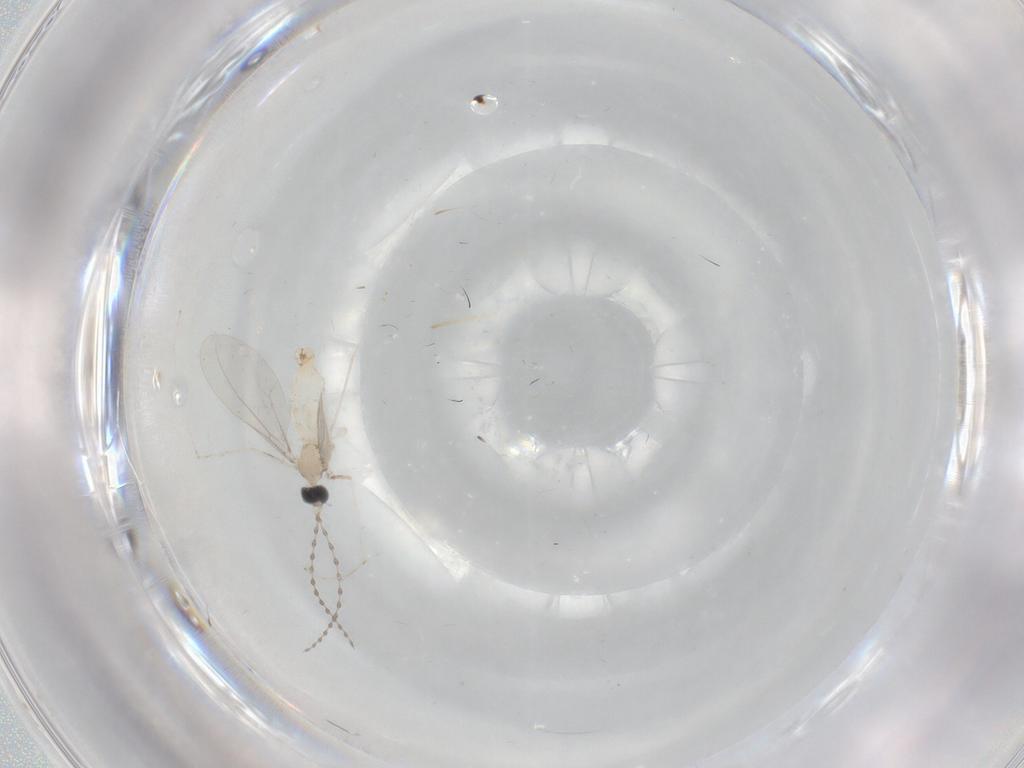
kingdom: Animalia
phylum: Arthropoda
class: Insecta
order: Diptera
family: Cecidomyiidae
